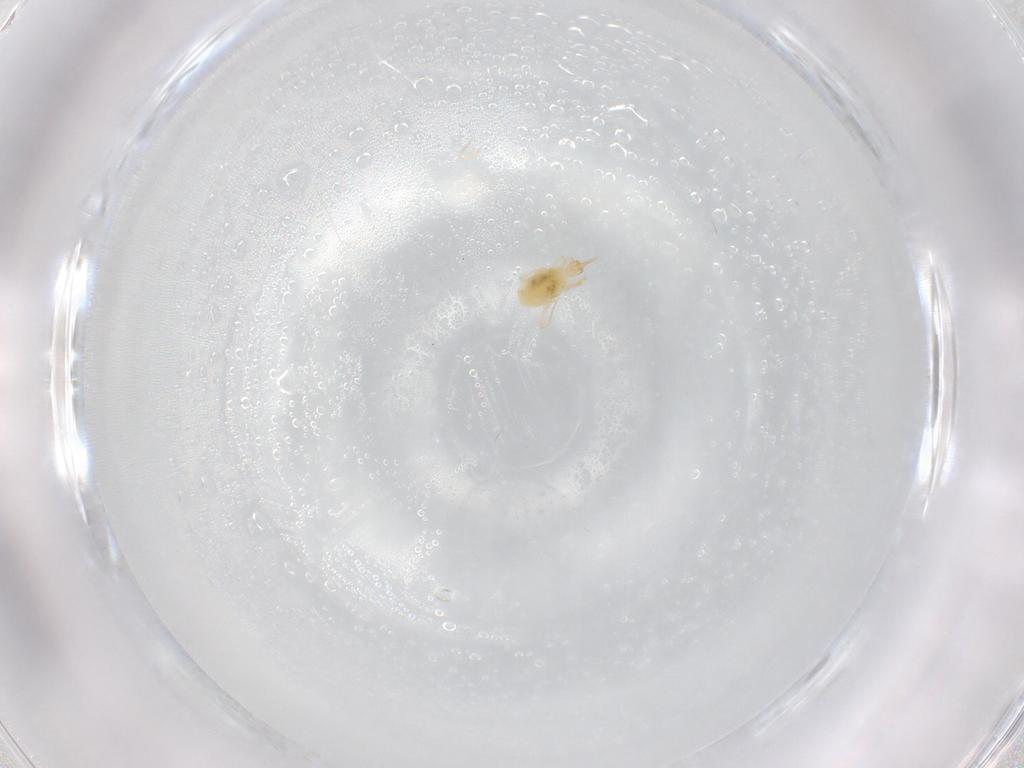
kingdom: Animalia
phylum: Arthropoda
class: Arachnida
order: Sarcoptiformes
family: Humerobatidae
